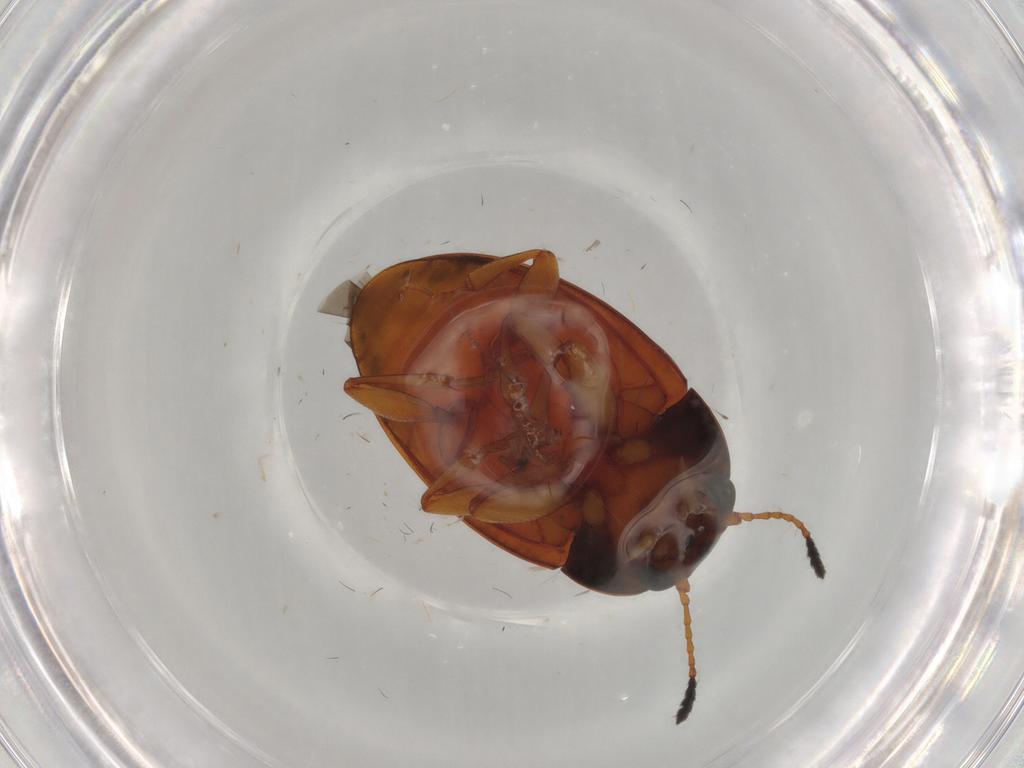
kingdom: Animalia
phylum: Arthropoda
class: Insecta
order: Coleoptera
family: Erotylidae
